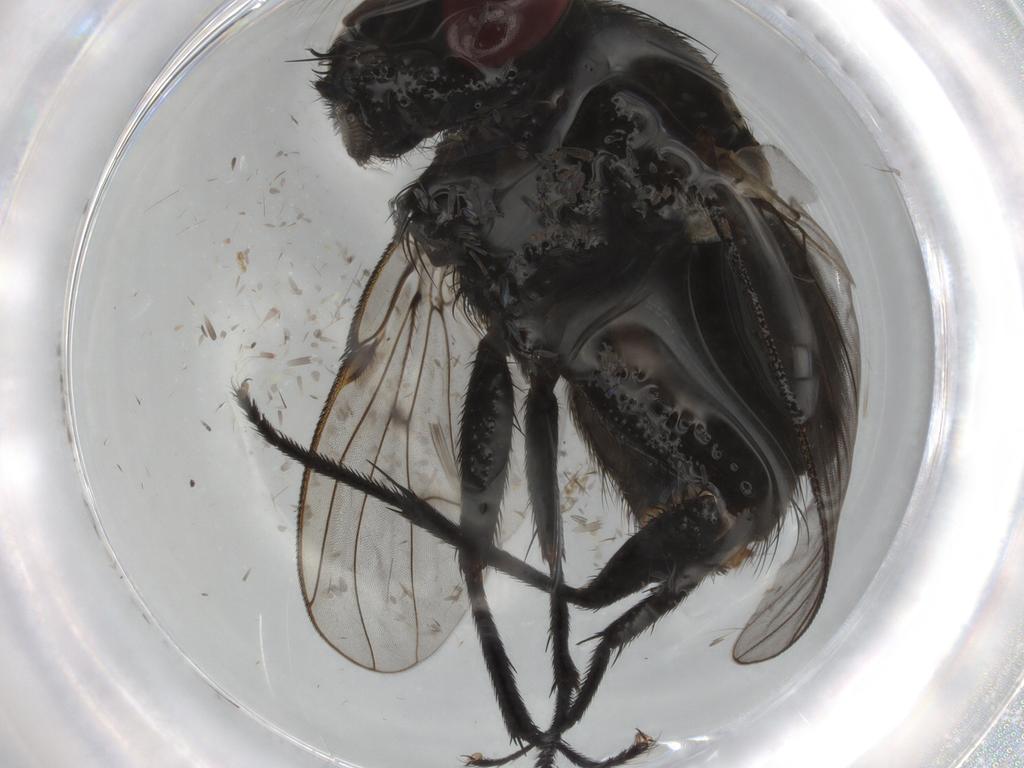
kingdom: Animalia
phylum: Arthropoda
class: Insecta
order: Diptera
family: Muscidae
